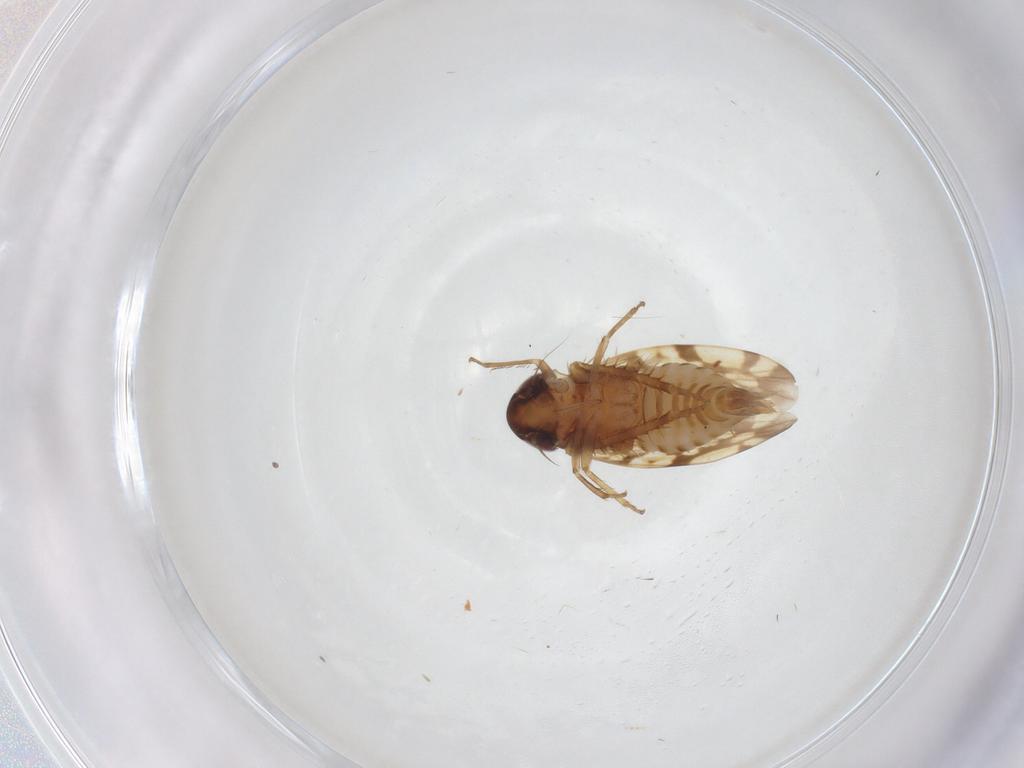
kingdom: Animalia
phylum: Arthropoda
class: Insecta
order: Hemiptera
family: Cicadellidae
